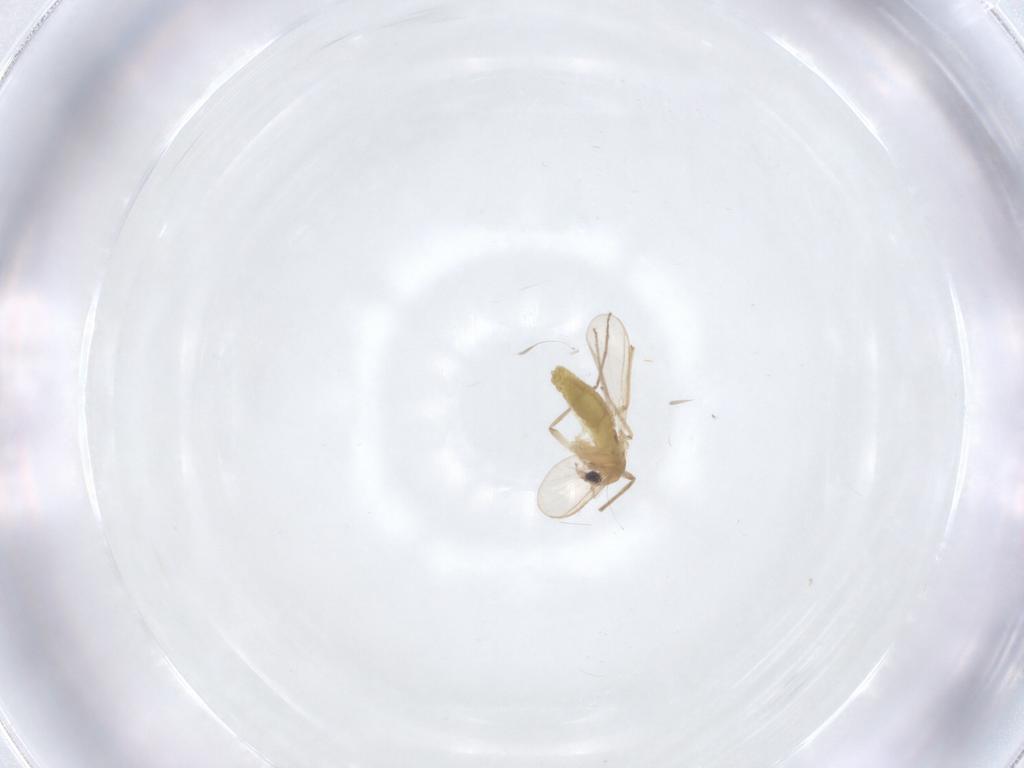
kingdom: Animalia
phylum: Arthropoda
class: Insecta
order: Diptera
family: Chironomidae
